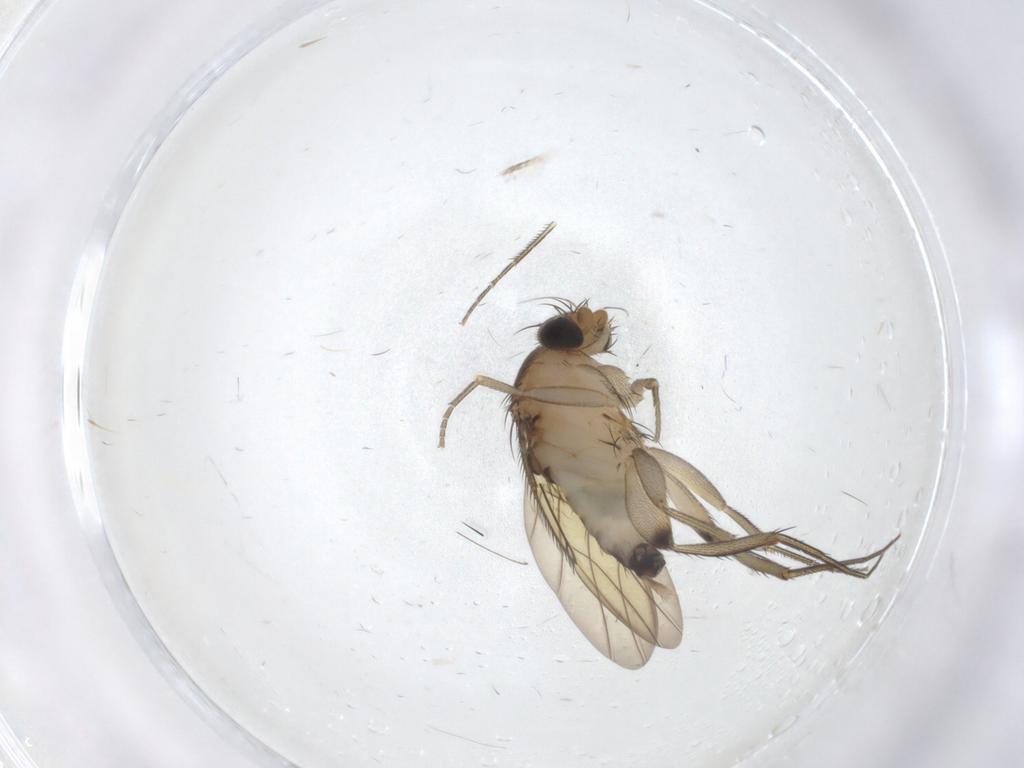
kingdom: Animalia
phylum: Arthropoda
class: Insecta
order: Diptera
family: Phoridae
